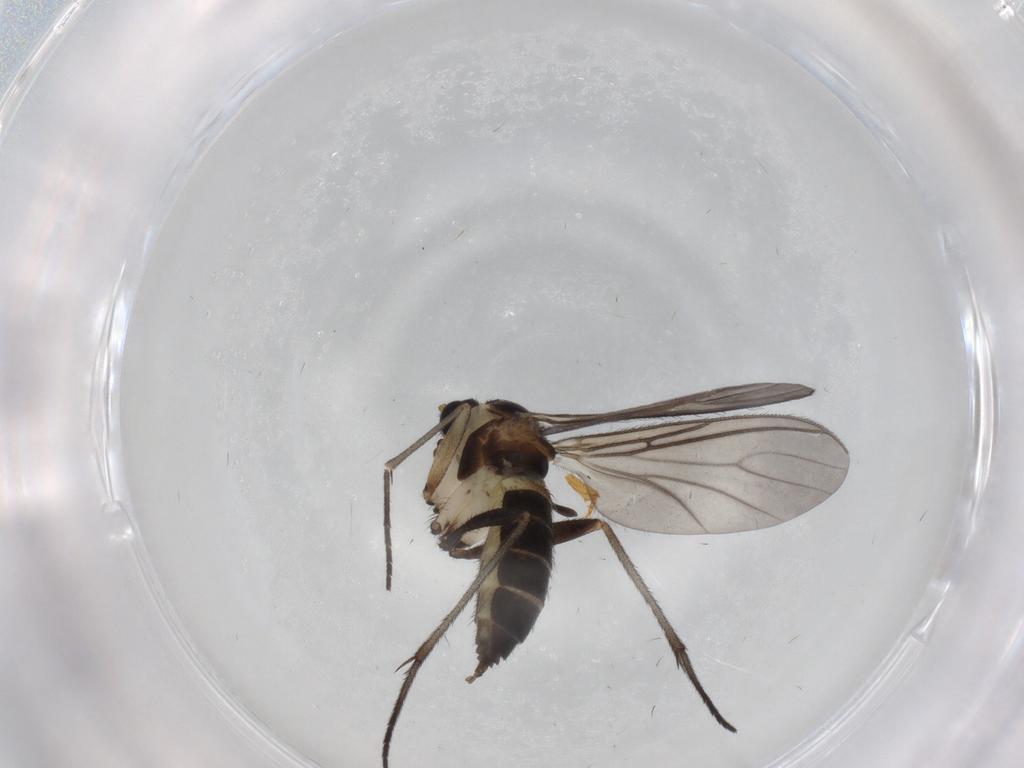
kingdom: Animalia
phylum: Arthropoda
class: Insecta
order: Diptera
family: Sciaridae
